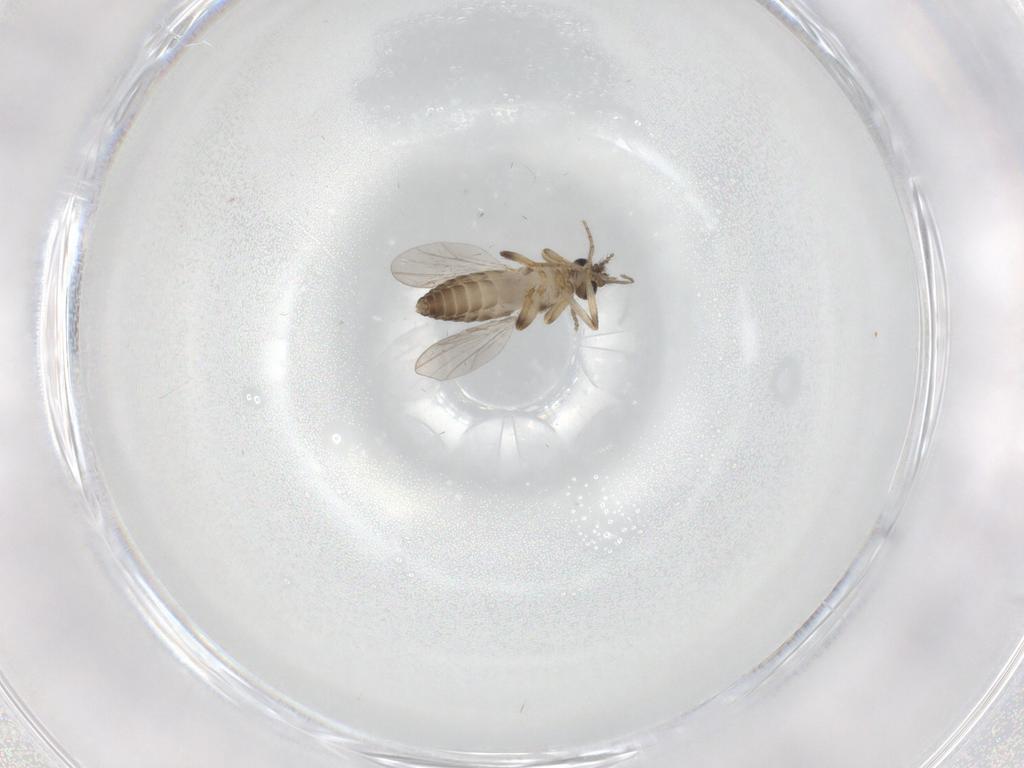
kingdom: Animalia
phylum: Arthropoda
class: Insecta
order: Diptera
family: Ceratopogonidae
